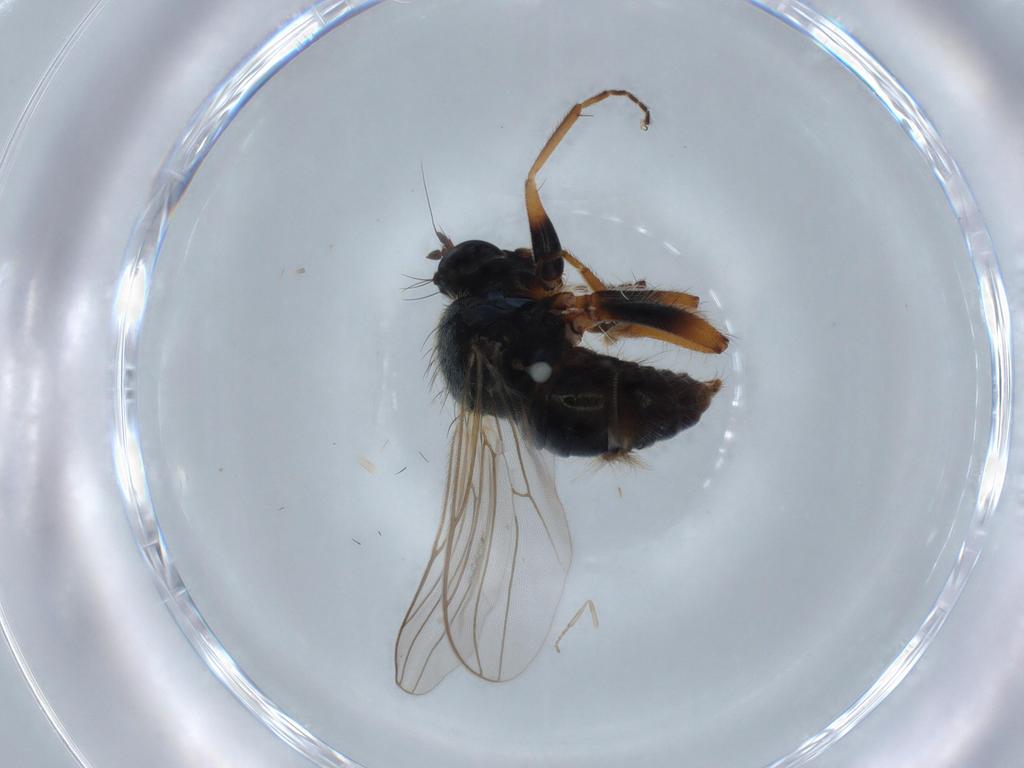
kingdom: Animalia
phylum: Arthropoda
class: Insecta
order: Diptera
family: Hybotidae
